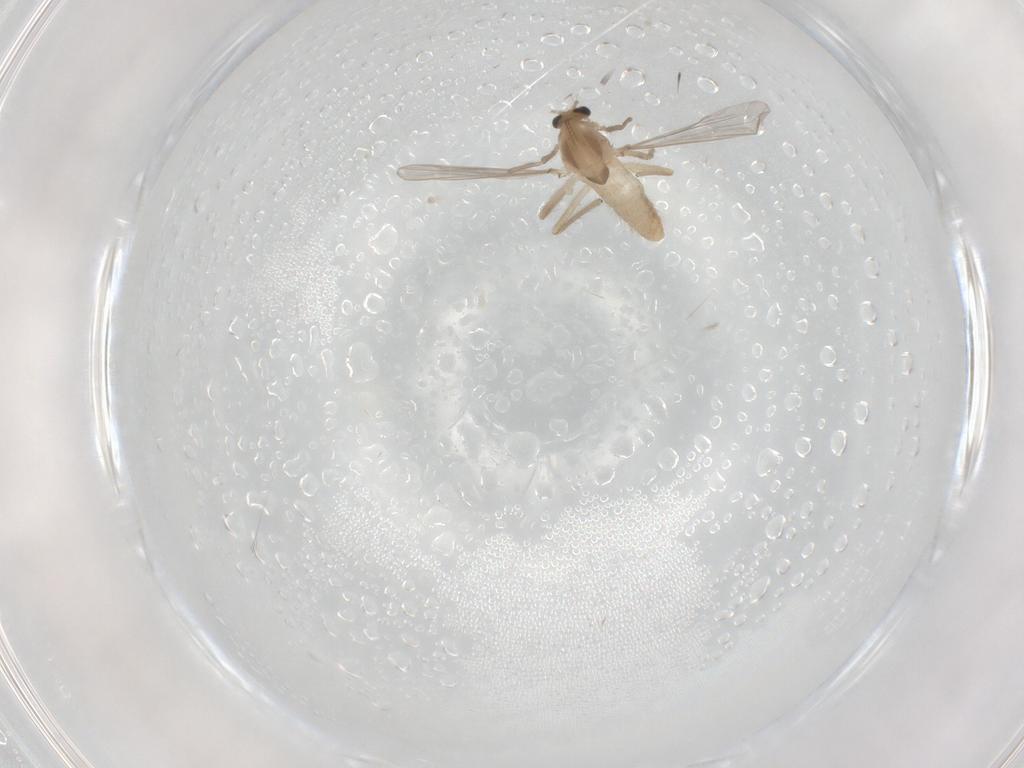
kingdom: Animalia
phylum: Arthropoda
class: Insecta
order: Diptera
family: Chironomidae
